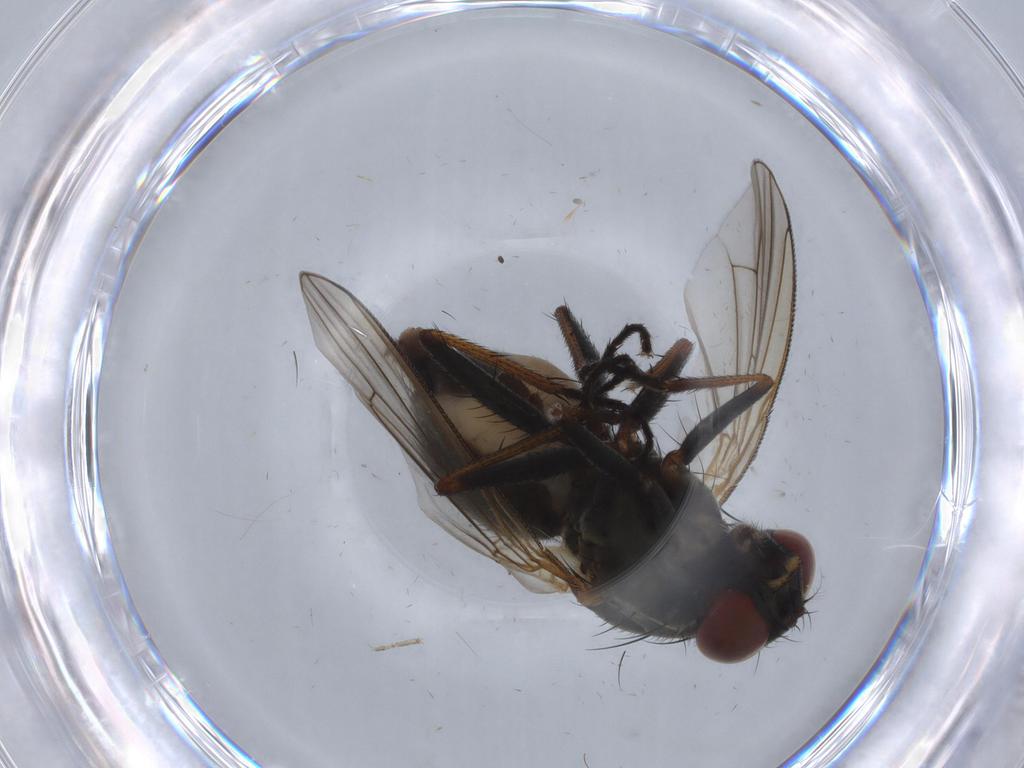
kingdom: Animalia
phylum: Arthropoda
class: Insecta
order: Diptera
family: Muscidae
